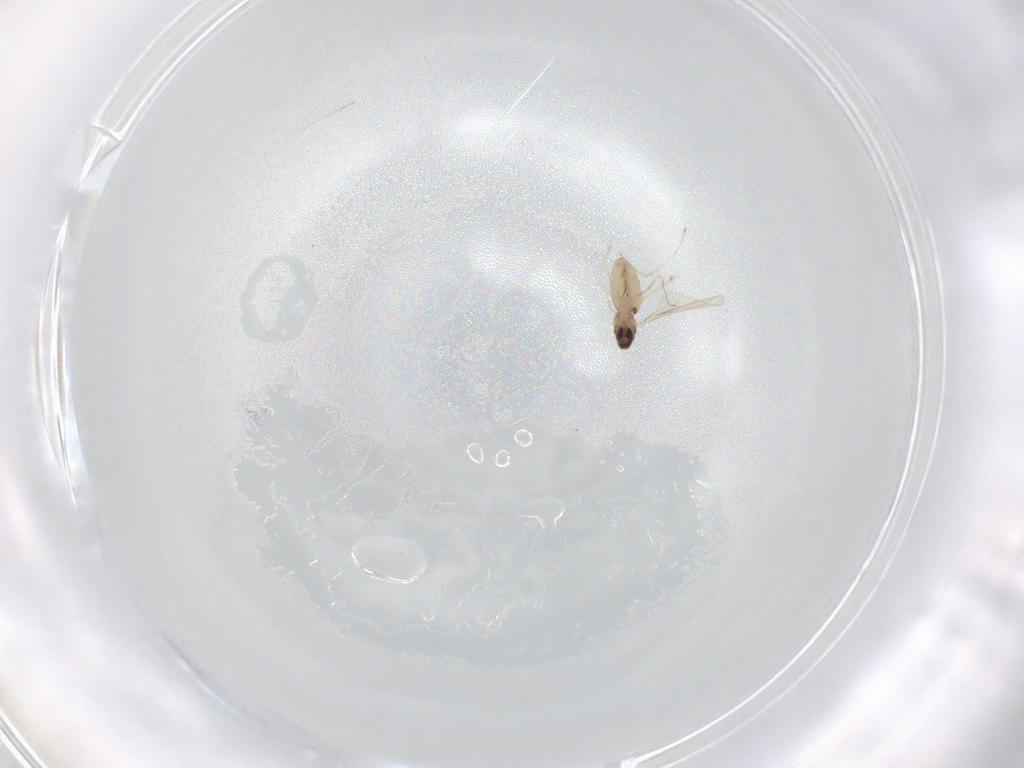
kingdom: Animalia
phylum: Arthropoda
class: Insecta
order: Diptera
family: Cecidomyiidae
